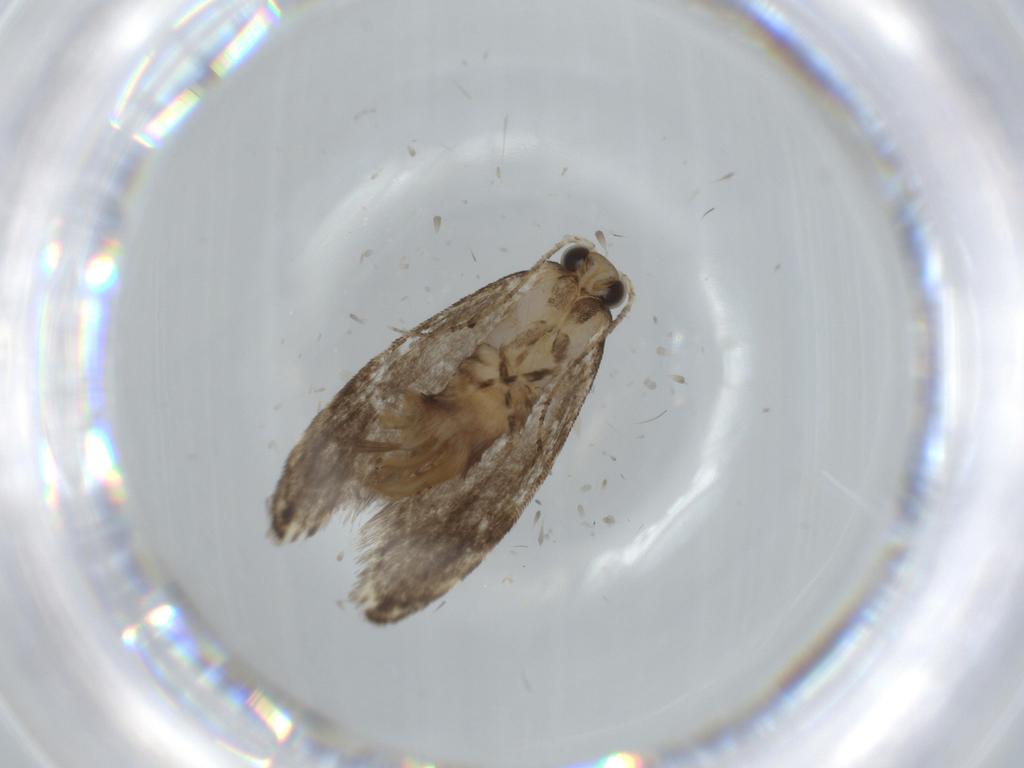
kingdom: Animalia
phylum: Arthropoda
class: Insecta
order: Lepidoptera
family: Tineidae
